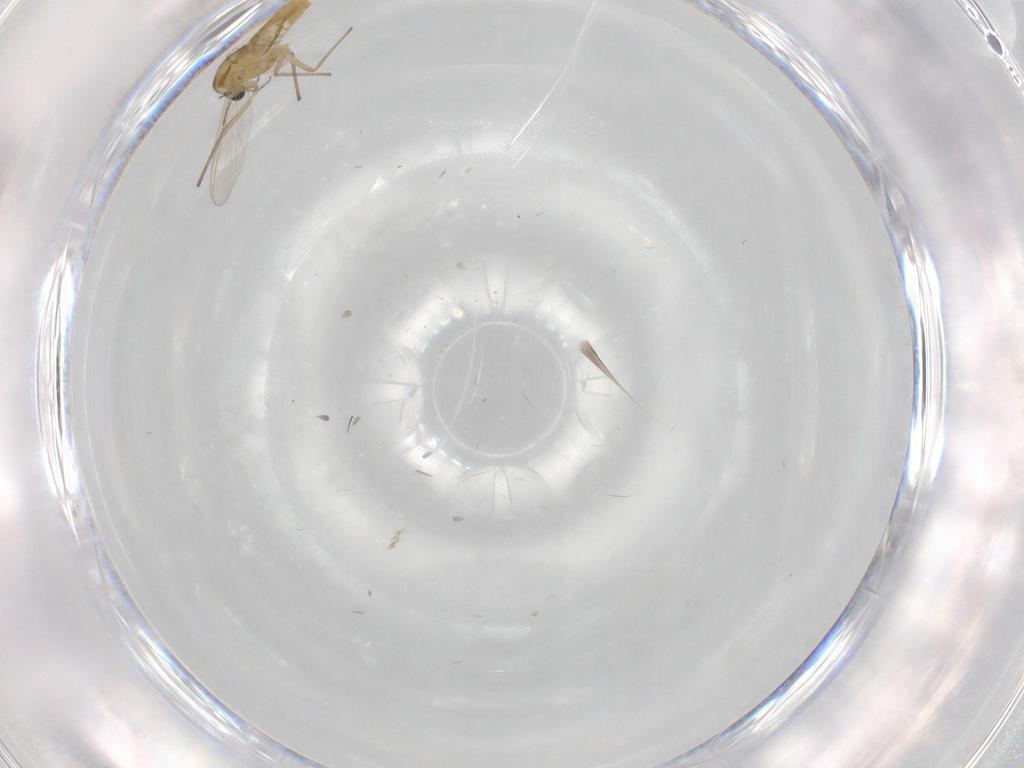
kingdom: Animalia
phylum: Arthropoda
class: Insecta
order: Diptera
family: Chironomidae
